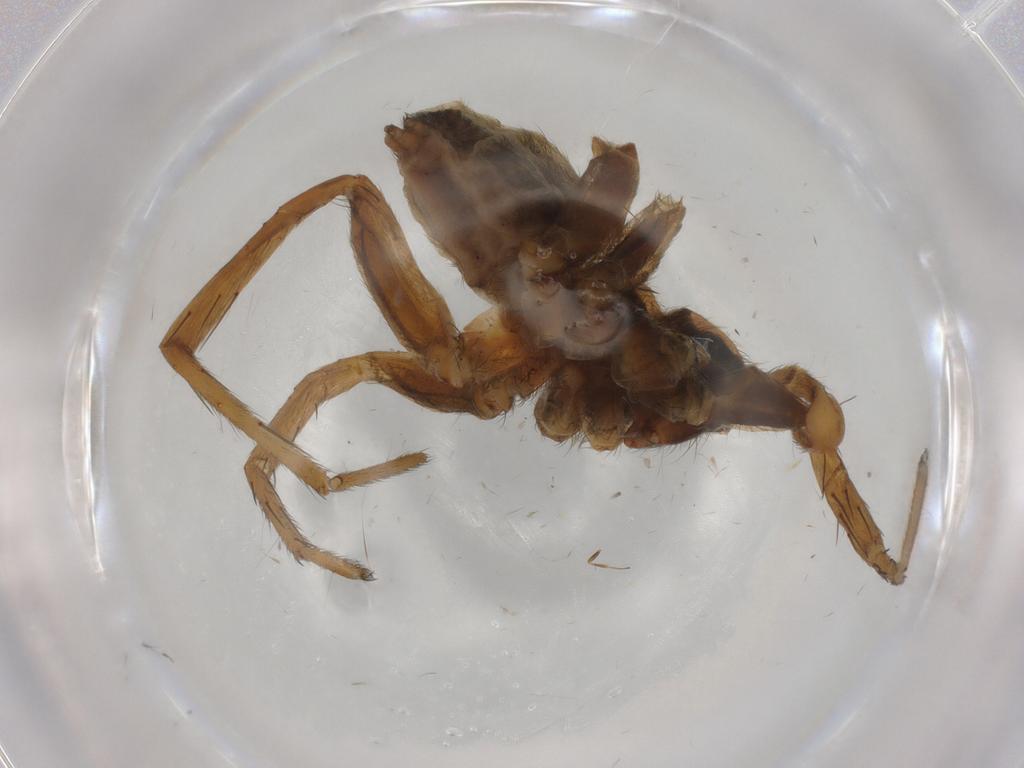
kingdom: Animalia
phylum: Arthropoda
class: Arachnida
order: Araneae
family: Lycosidae
